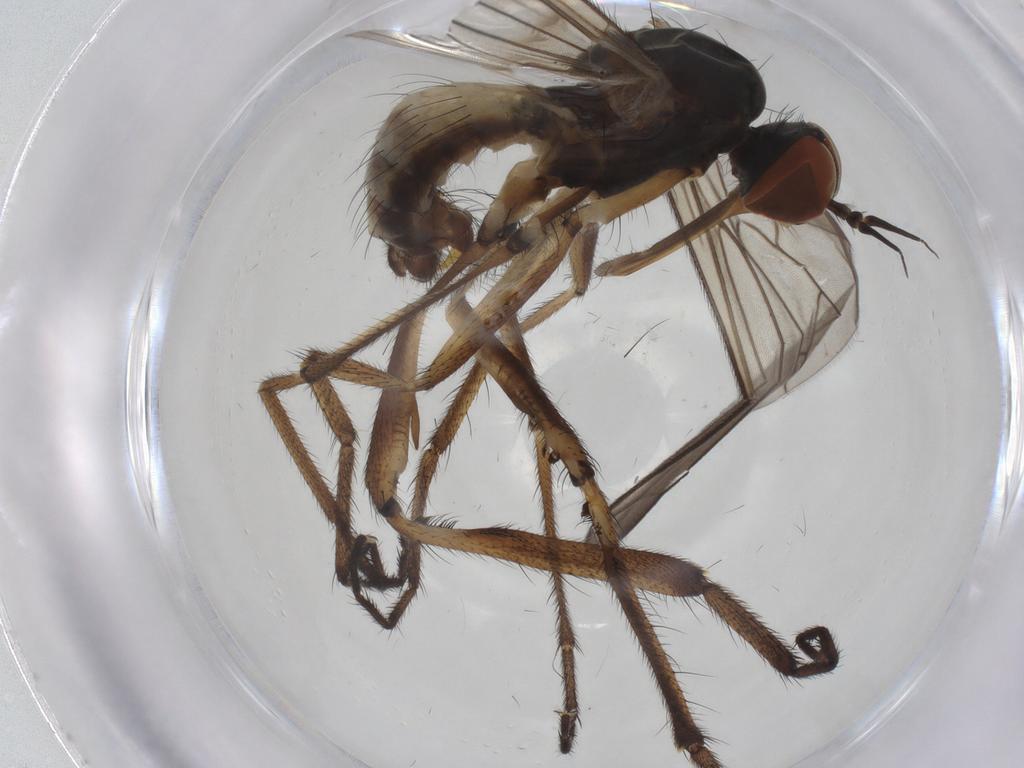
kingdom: Animalia
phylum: Arthropoda
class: Insecta
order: Diptera
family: Empididae
